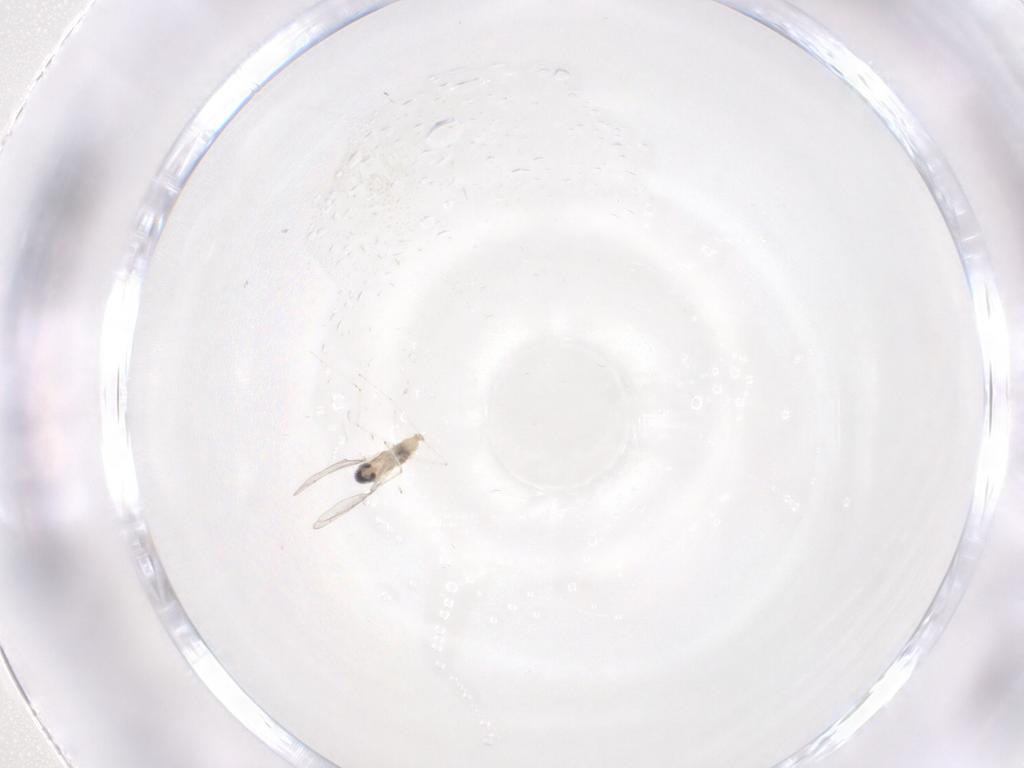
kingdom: Animalia
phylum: Arthropoda
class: Insecta
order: Diptera
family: Cecidomyiidae
